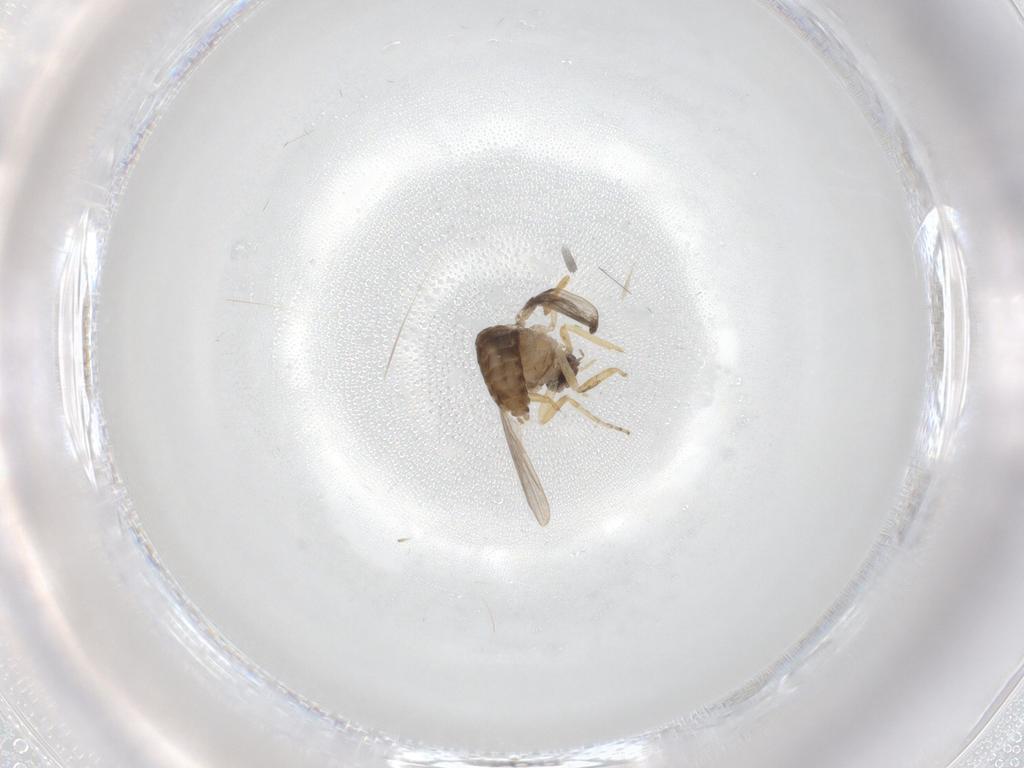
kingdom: Animalia
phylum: Arthropoda
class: Insecta
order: Diptera
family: Ceratopogonidae
